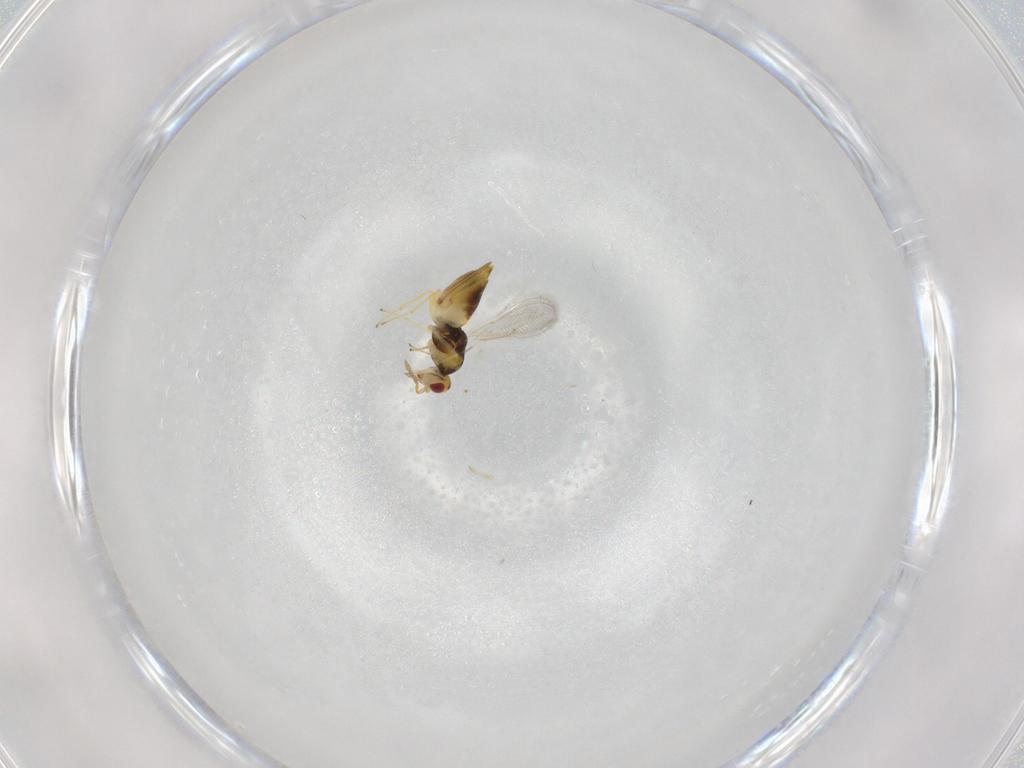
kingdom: Animalia
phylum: Arthropoda
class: Insecta
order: Hymenoptera
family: Eulophidae
